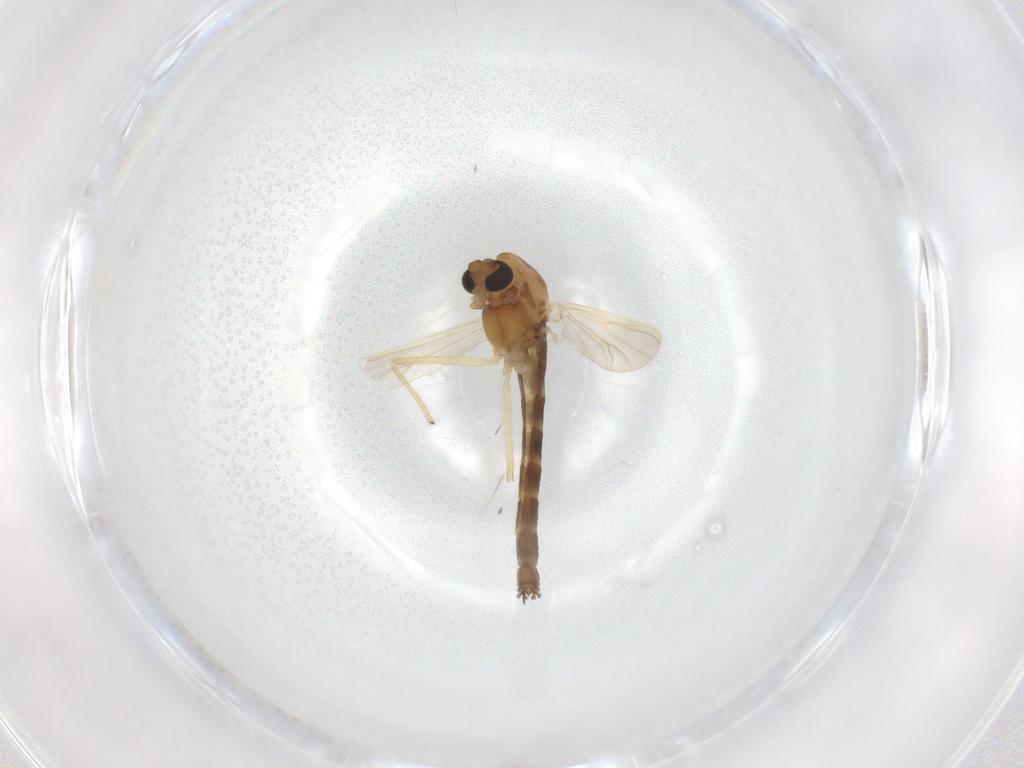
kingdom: Animalia
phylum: Arthropoda
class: Insecta
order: Diptera
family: Chironomidae
